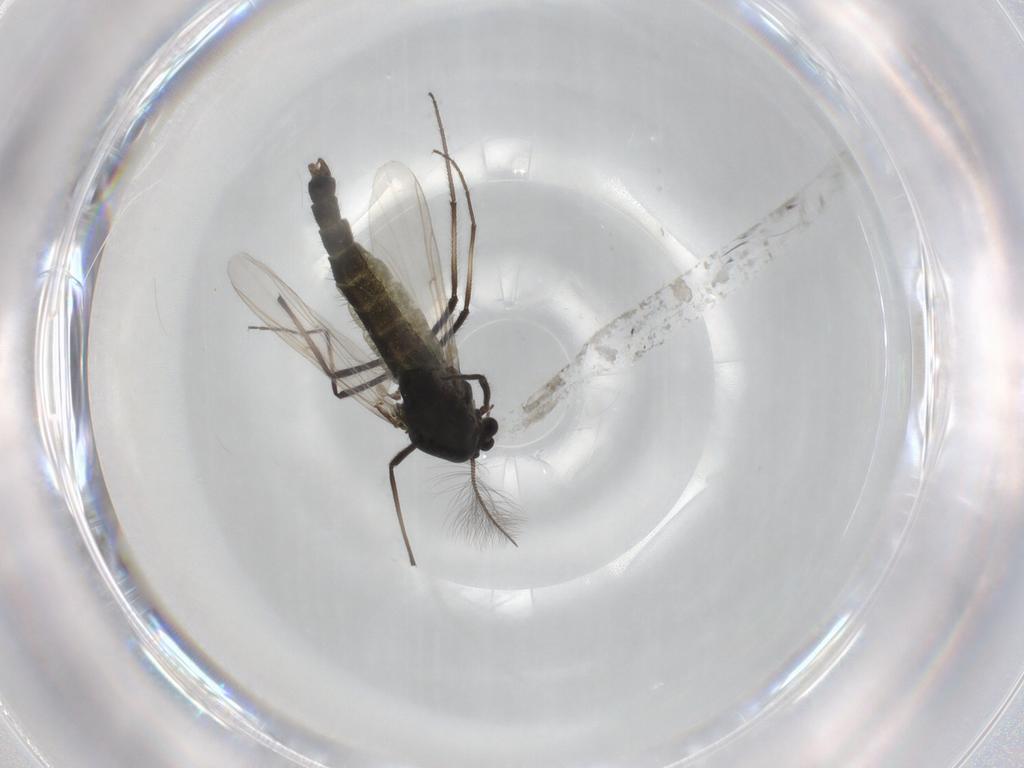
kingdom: Animalia
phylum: Arthropoda
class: Insecta
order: Diptera
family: Chironomidae
